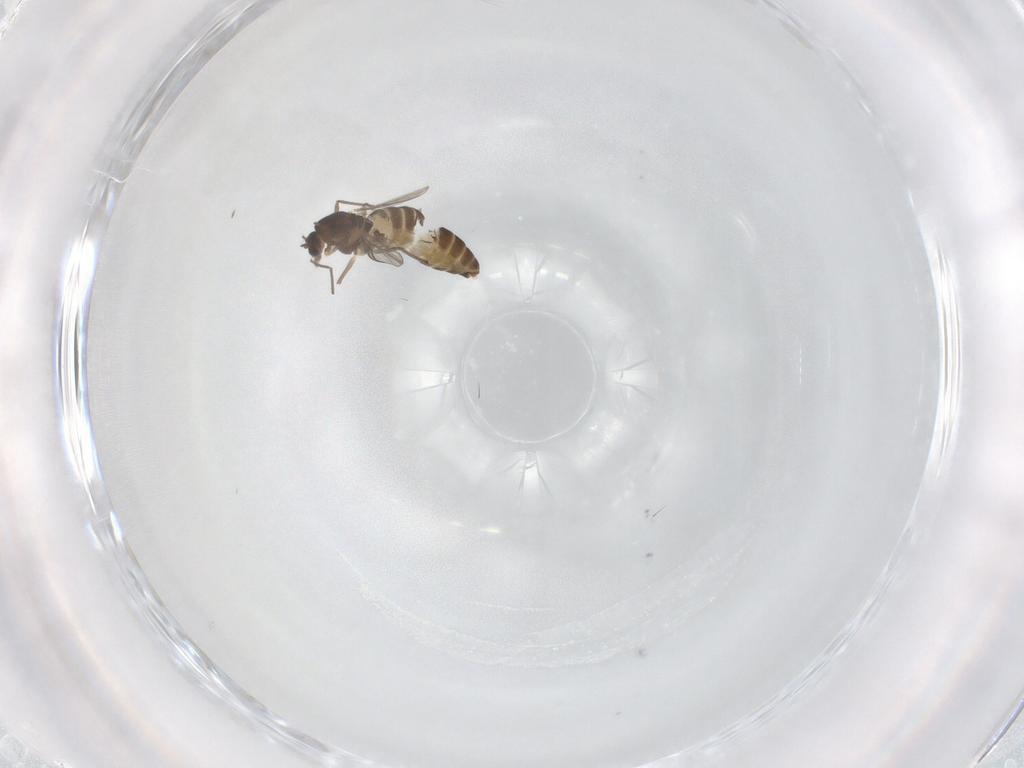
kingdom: Animalia
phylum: Arthropoda
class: Insecta
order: Diptera
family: Chironomidae
